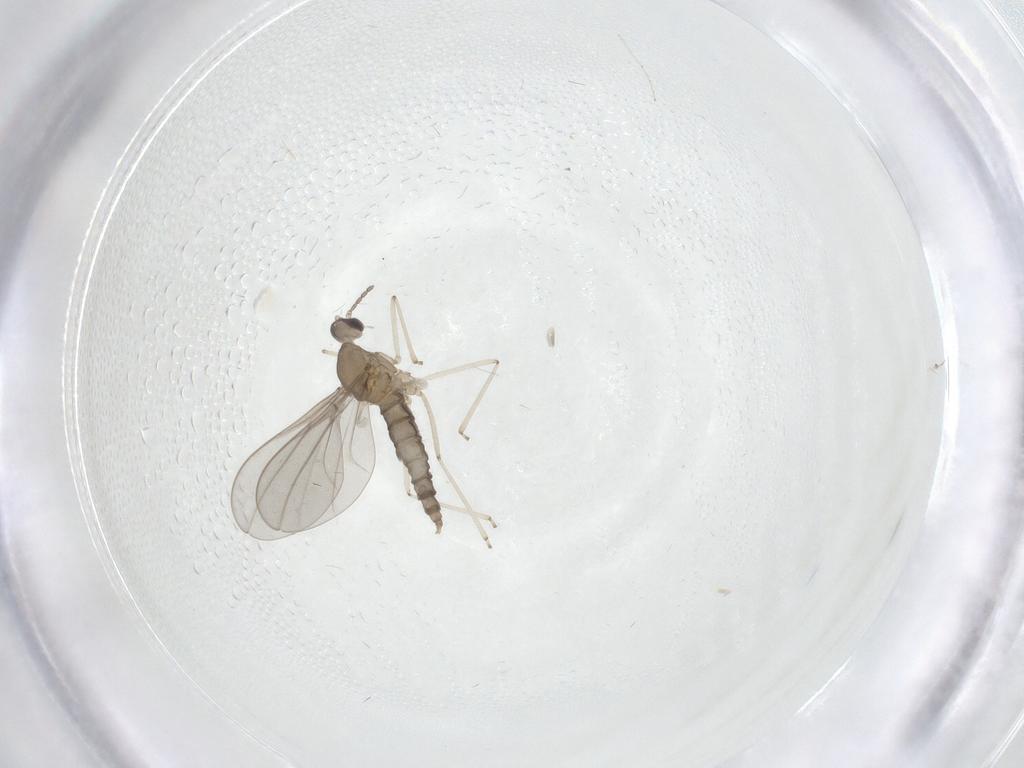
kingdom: Animalia
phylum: Arthropoda
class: Insecta
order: Diptera
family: Cecidomyiidae
